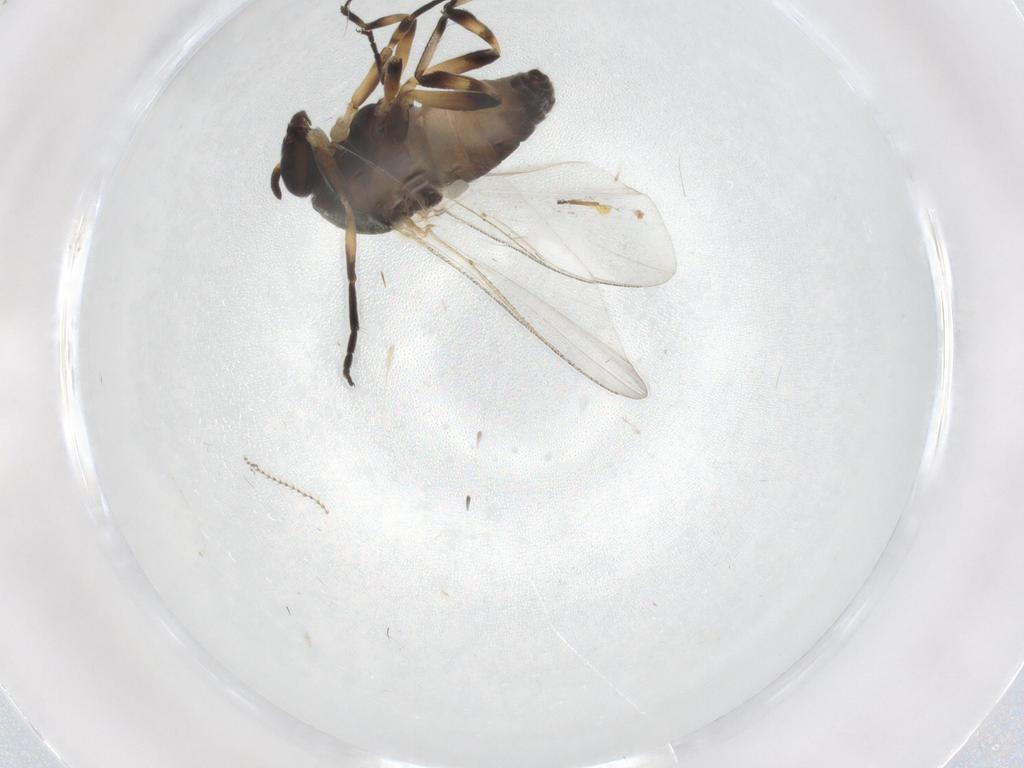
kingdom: Animalia
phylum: Arthropoda
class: Insecta
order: Diptera
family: Cecidomyiidae
